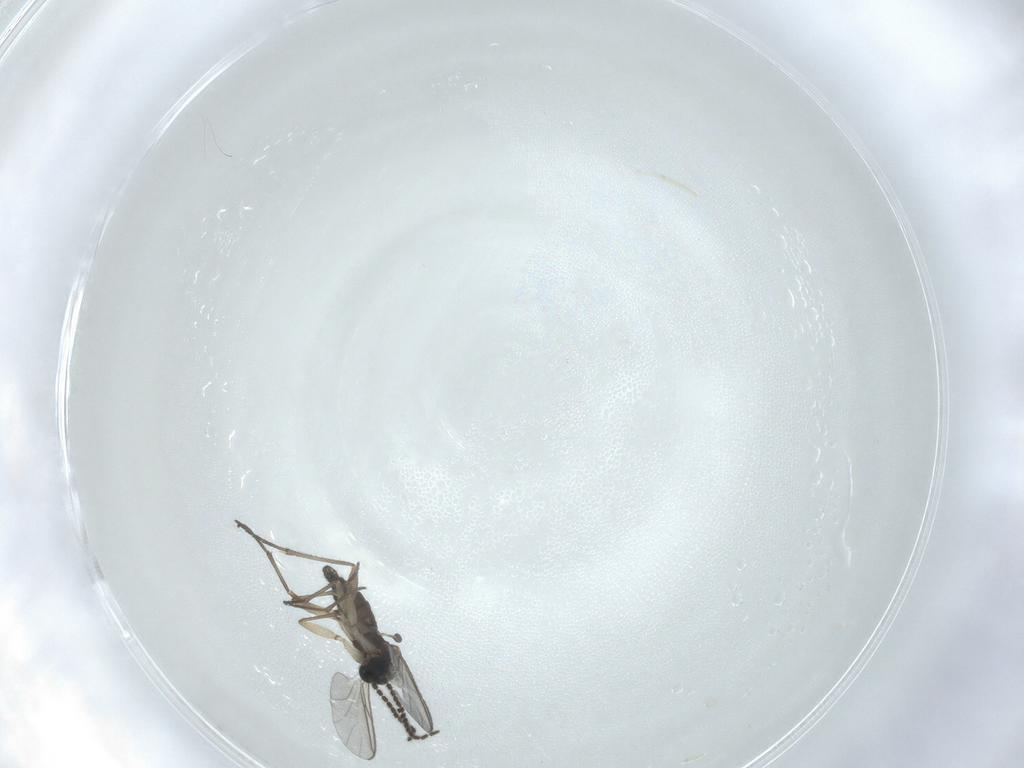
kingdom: Animalia
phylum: Arthropoda
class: Insecta
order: Diptera
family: Sciaridae
